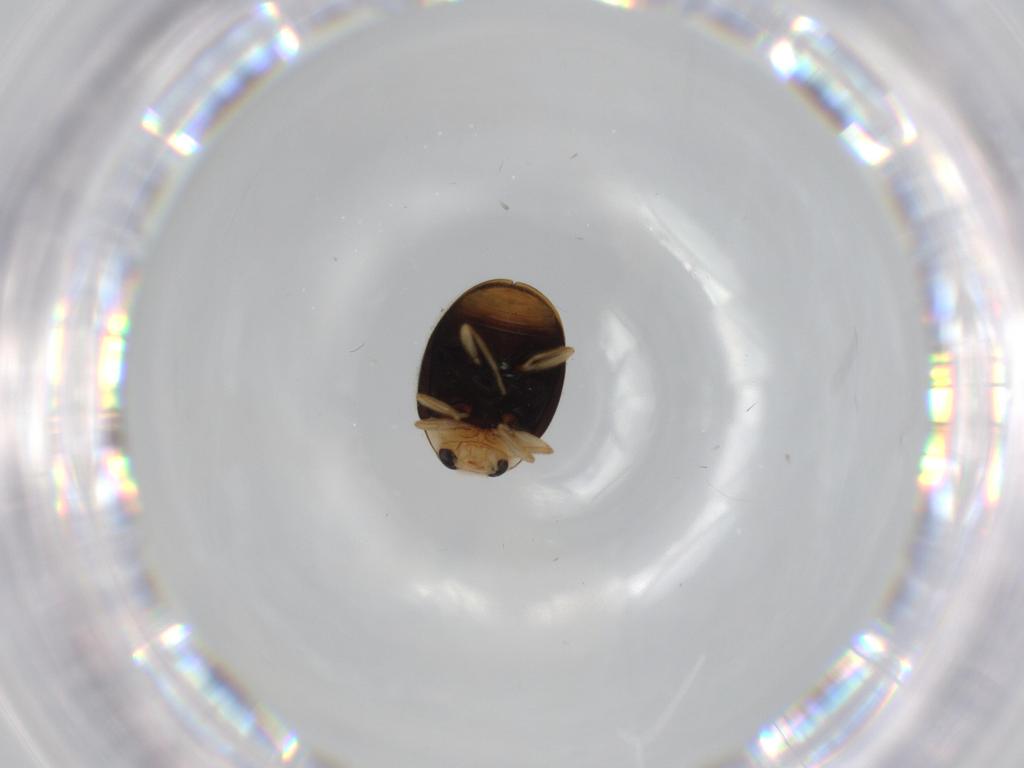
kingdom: Animalia
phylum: Arthropoda
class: Insecta
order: Coleoptera
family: Meloidae
